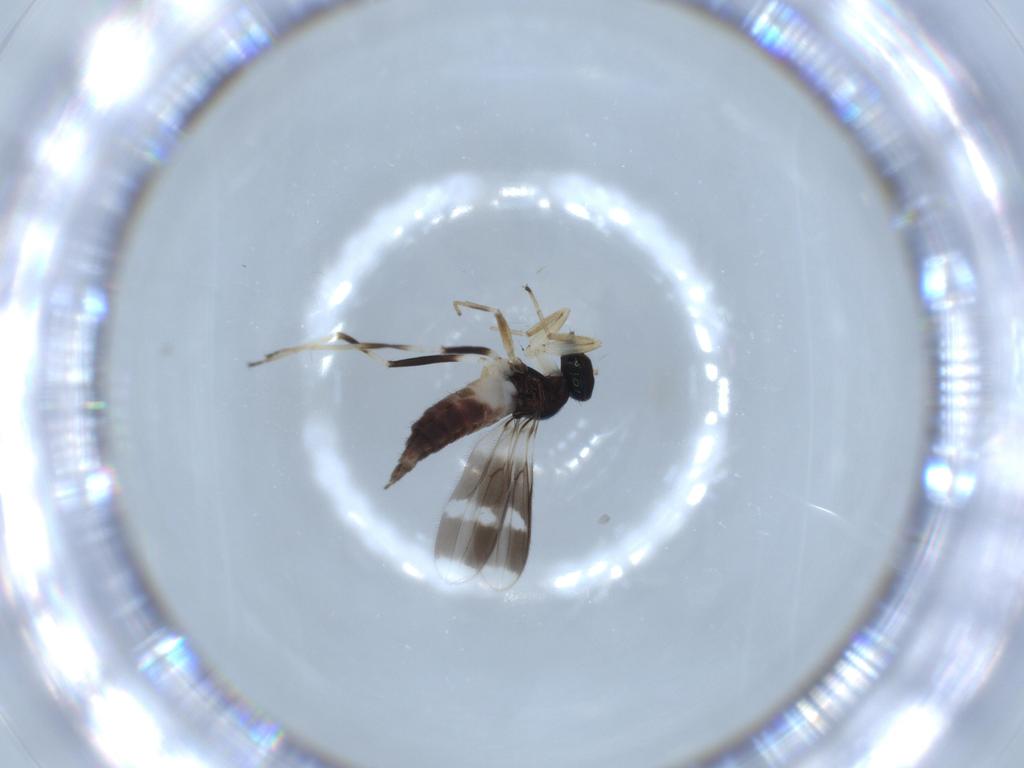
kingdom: Animalia
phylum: Arthropoda
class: Insecta
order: Diptera
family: Hybotidae
